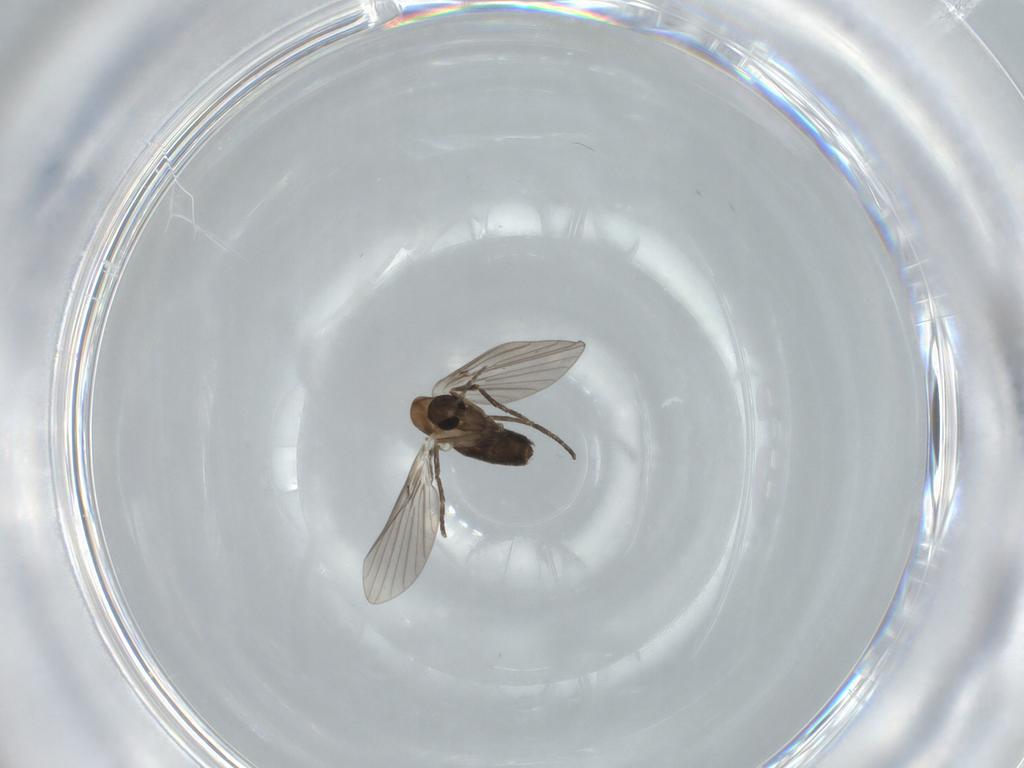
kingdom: Animalia
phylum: Arthropoda
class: Insecta
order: Diptera
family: Psychodidae
